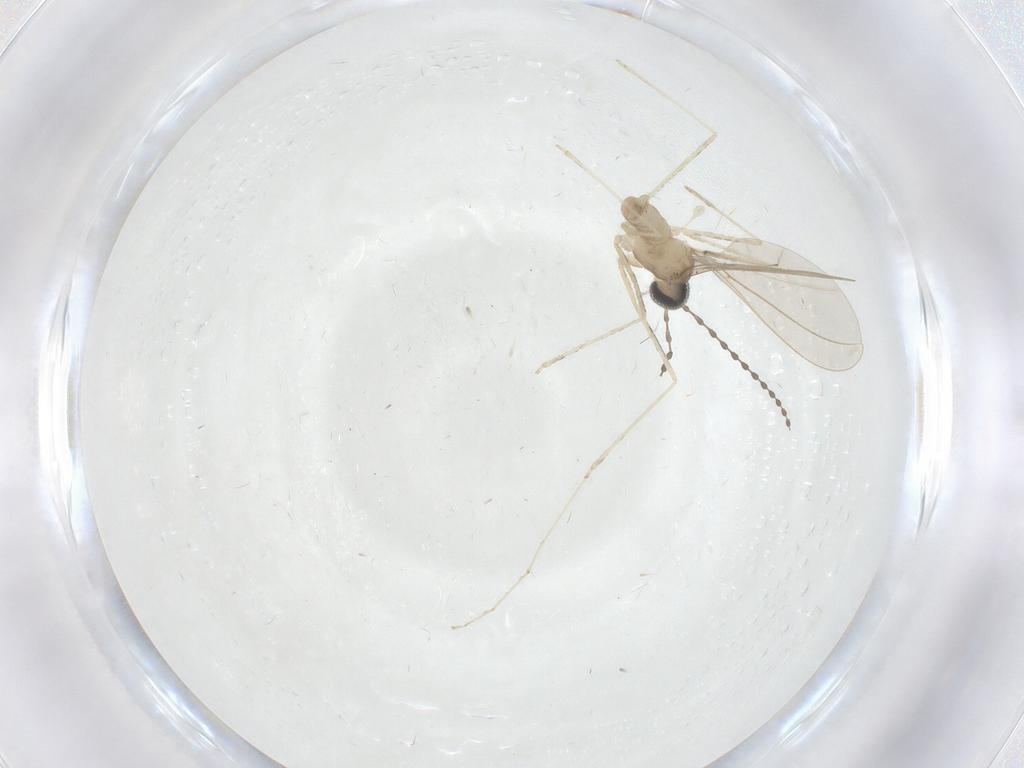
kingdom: Animalia
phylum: Arthropoda
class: Insecta
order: Diptera
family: Cecidomyiidae
